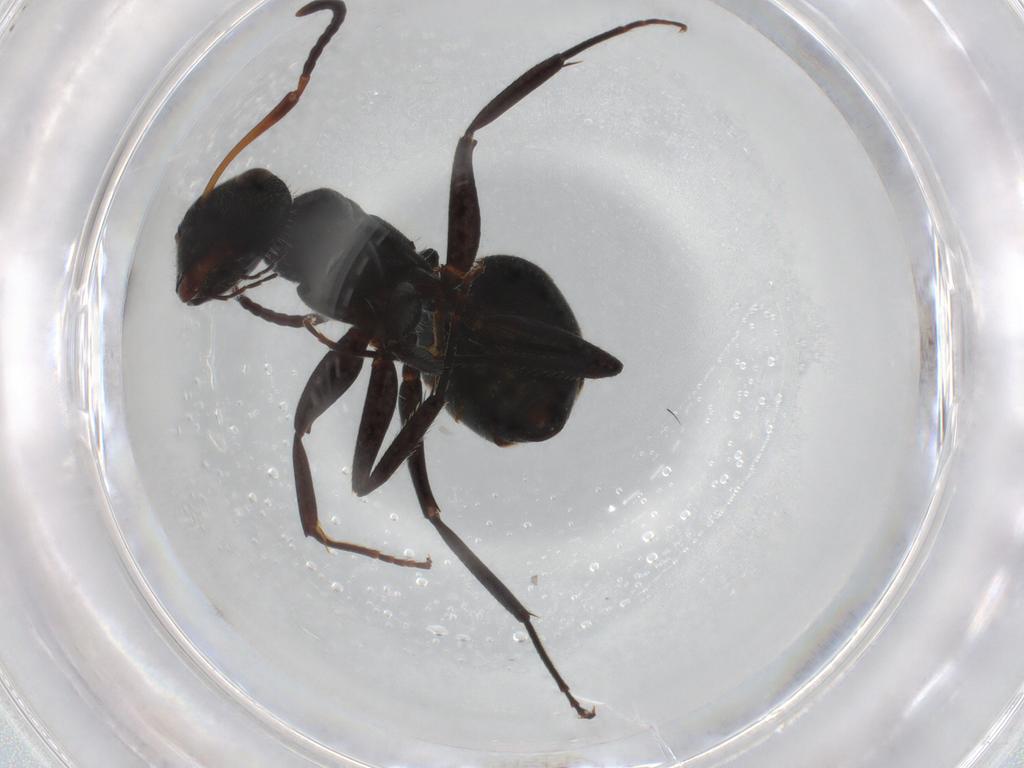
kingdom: Animalia
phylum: Arthropoda
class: Insecta
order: Hymenoptera
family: Formicidae
